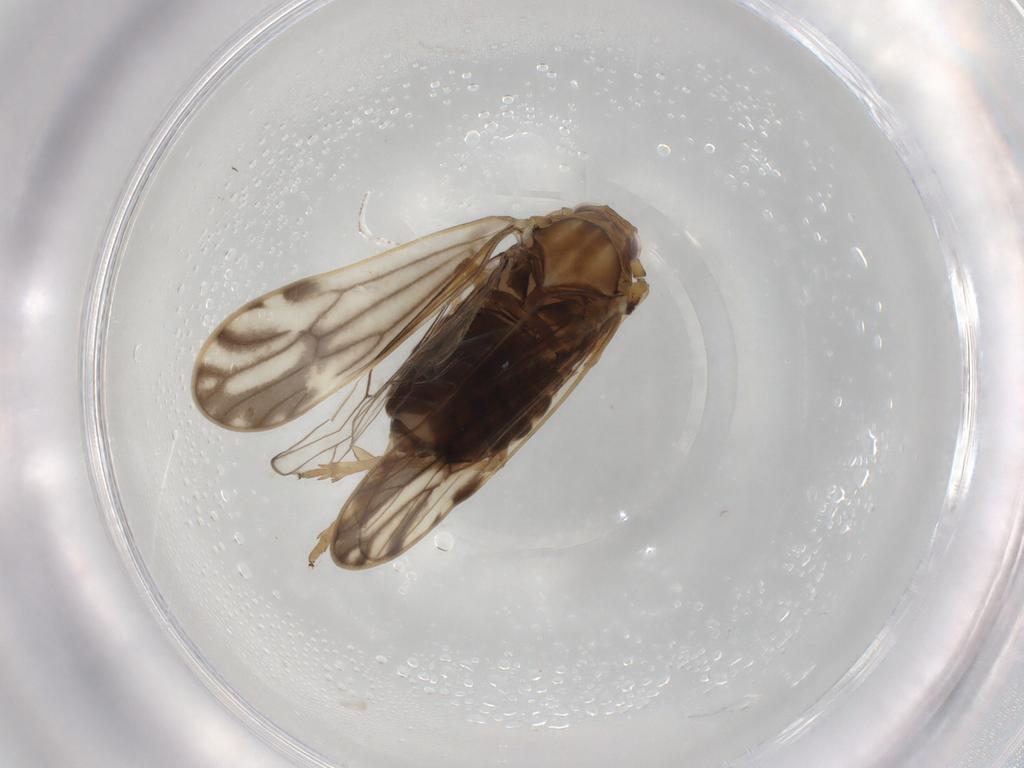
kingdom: Animalia
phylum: Arthropoda
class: Insecta
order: Hemiptera
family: Delphacidae
